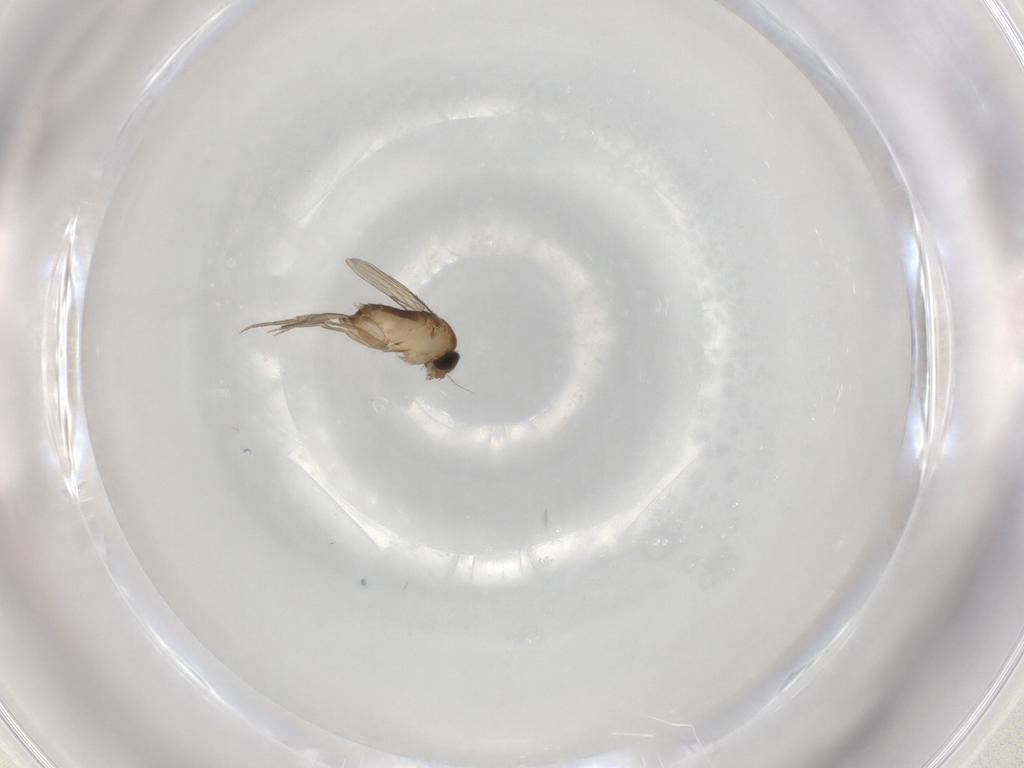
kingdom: Animalia
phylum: Arthropoda
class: Insecta
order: Diptera
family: Phoridae
